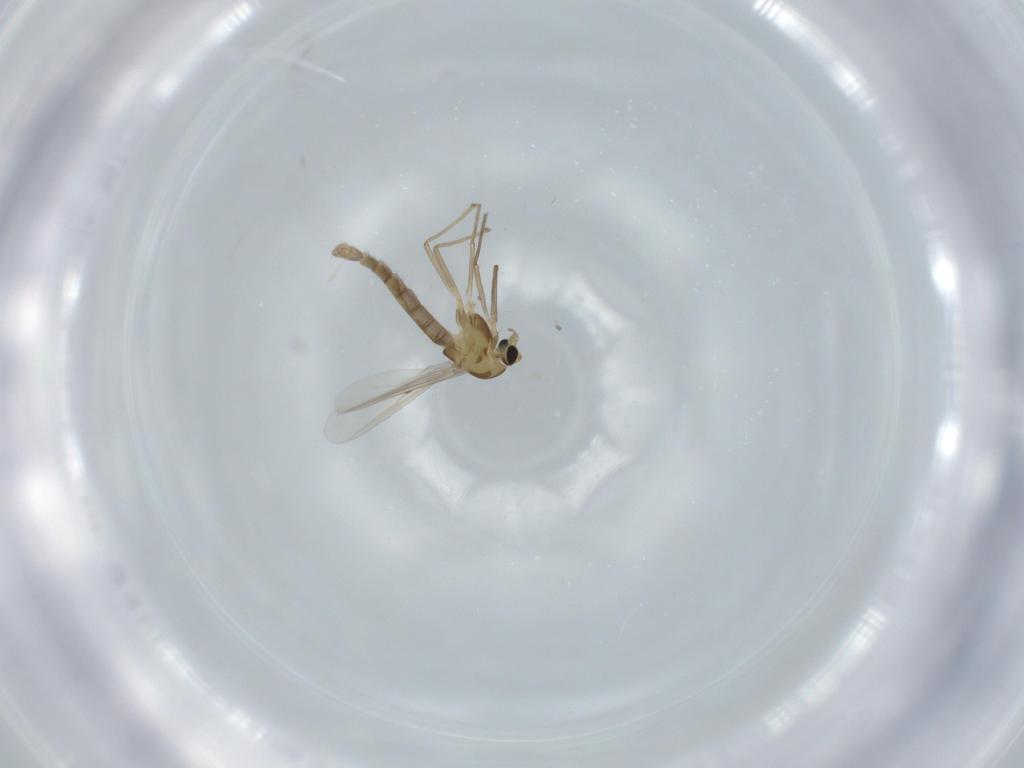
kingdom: Animalia
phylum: Arthropoda
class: Insecta
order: Diptera
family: Chironomidae
